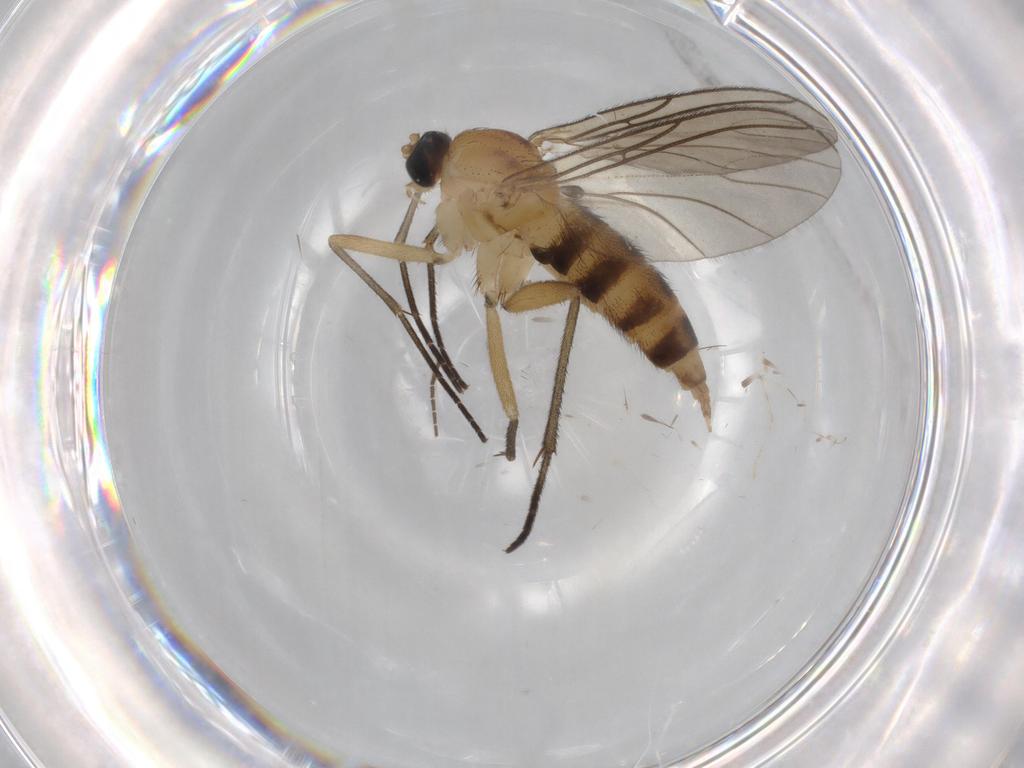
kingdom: Animalia
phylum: Arthropoda
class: Insecta
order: Diptera
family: Sciaridae
